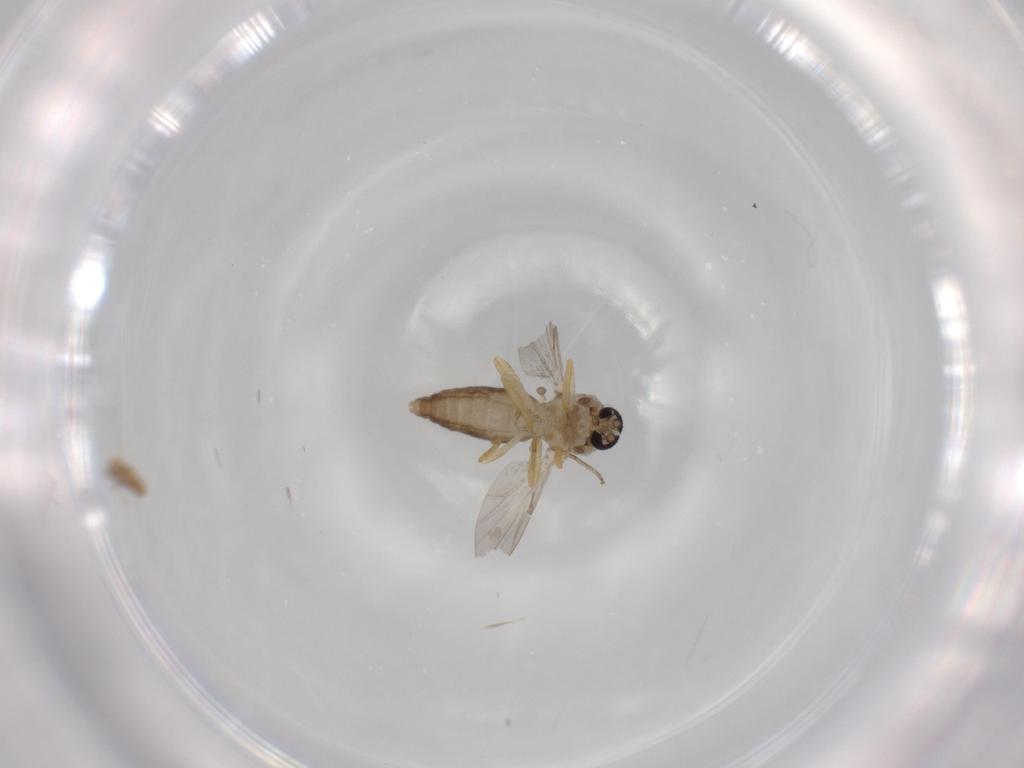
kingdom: Animalia
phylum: Arthropoda
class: Insecta
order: Diptera
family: Ceratopogonidae
